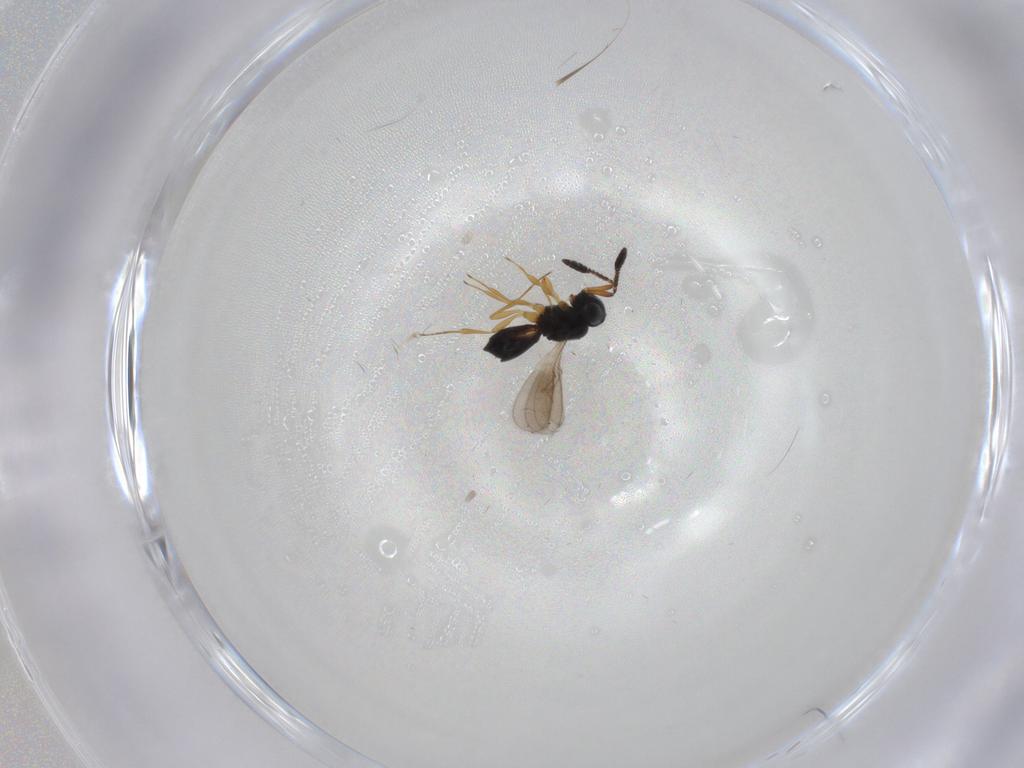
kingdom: Animalia
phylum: Arthropoda
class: Insecta
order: Hymenoptera
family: Scelionidae
